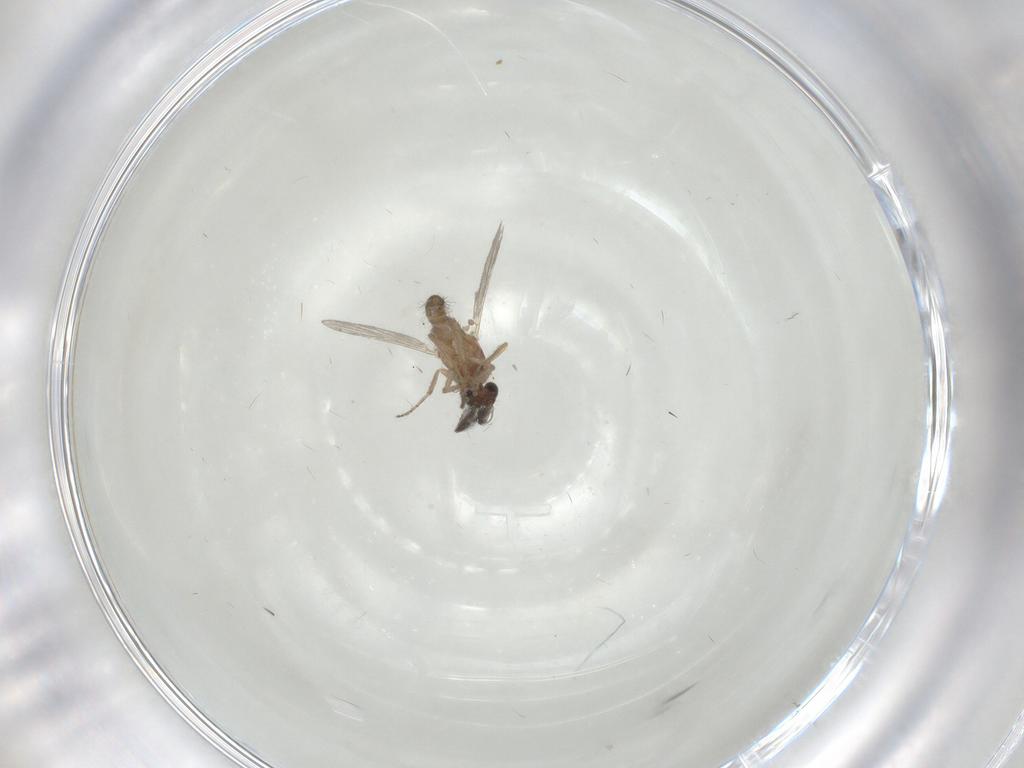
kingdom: Animalia
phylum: Arthropoda
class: Insecta
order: Diptera
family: Ceratopogonidae
